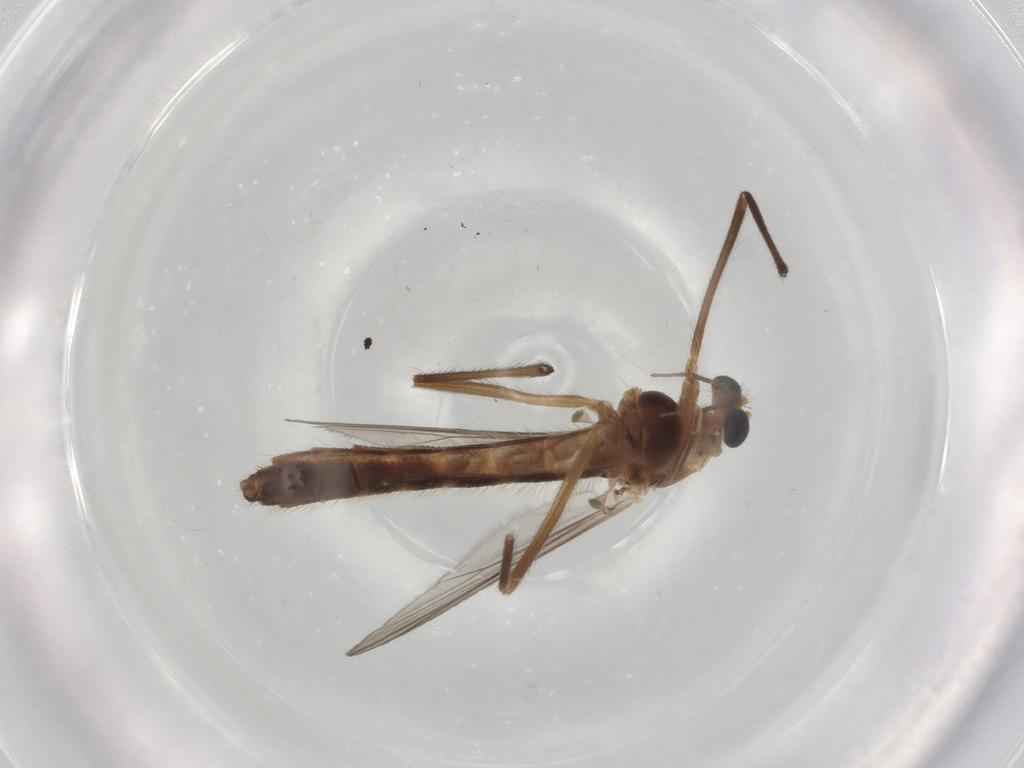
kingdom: Animalia
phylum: Arthropoda
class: Insecta
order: Diptera
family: Chironomidae
